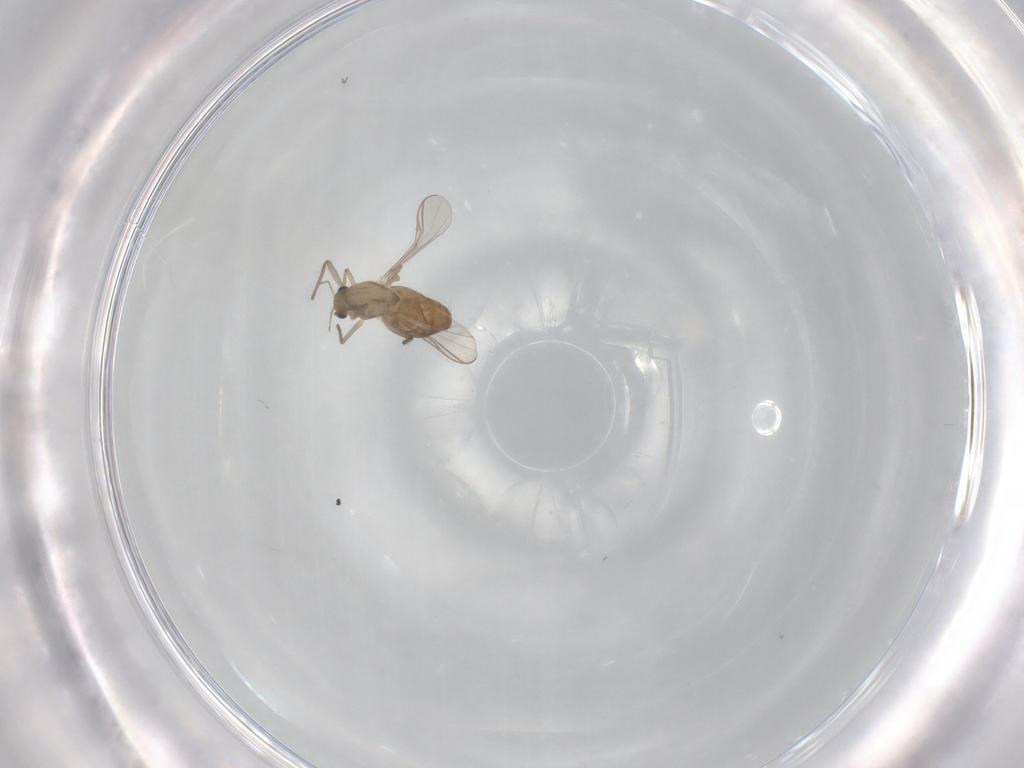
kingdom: Animalia
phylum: Arthropoda
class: Insecta
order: Diptera
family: Chironomidae
